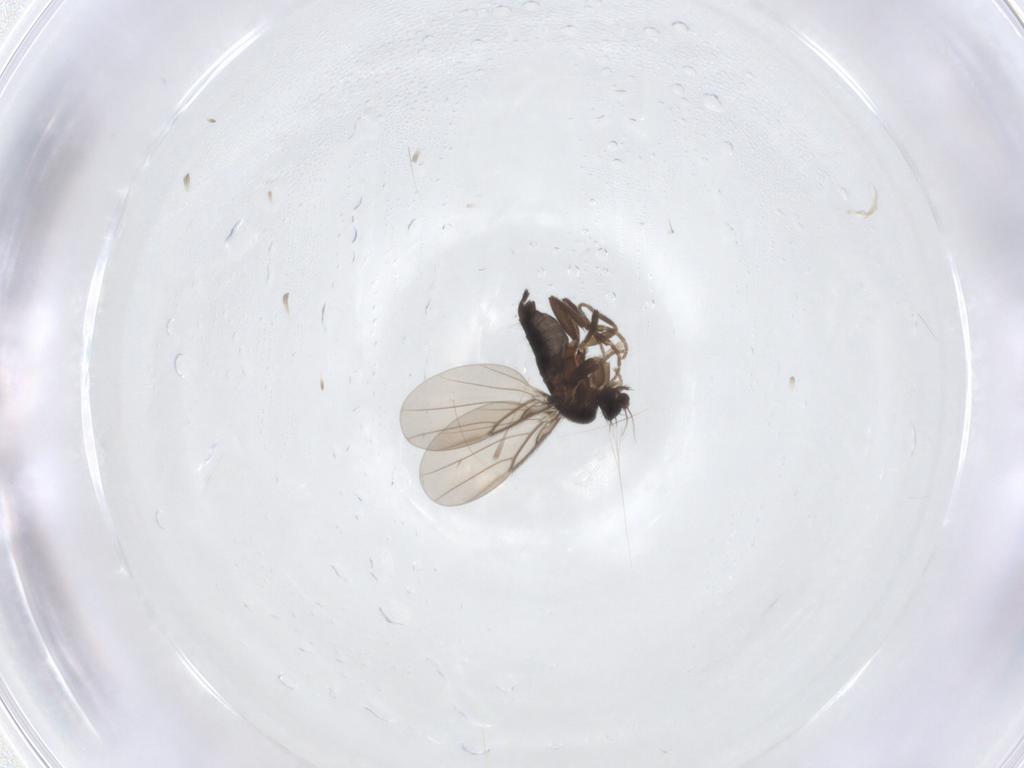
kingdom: Animalia
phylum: Arthropoda
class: Insecta
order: Diptera
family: Phoridae
